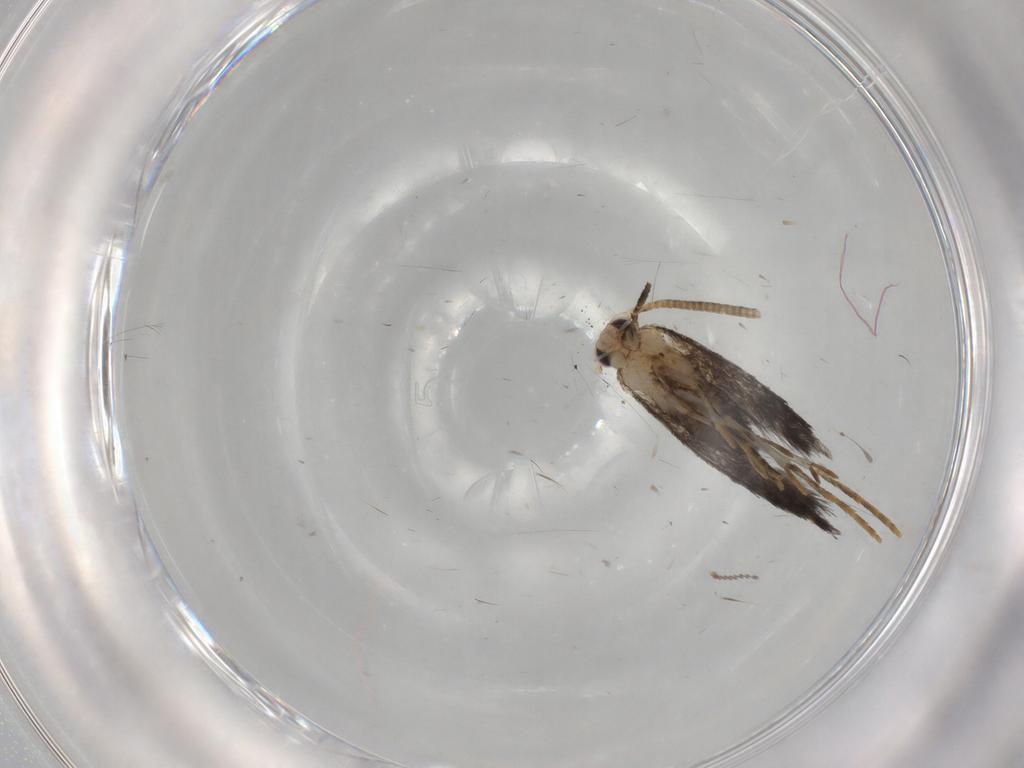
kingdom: Animalia
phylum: Arthropoda
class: Insecta
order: Lepidoptera
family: Tineidae
